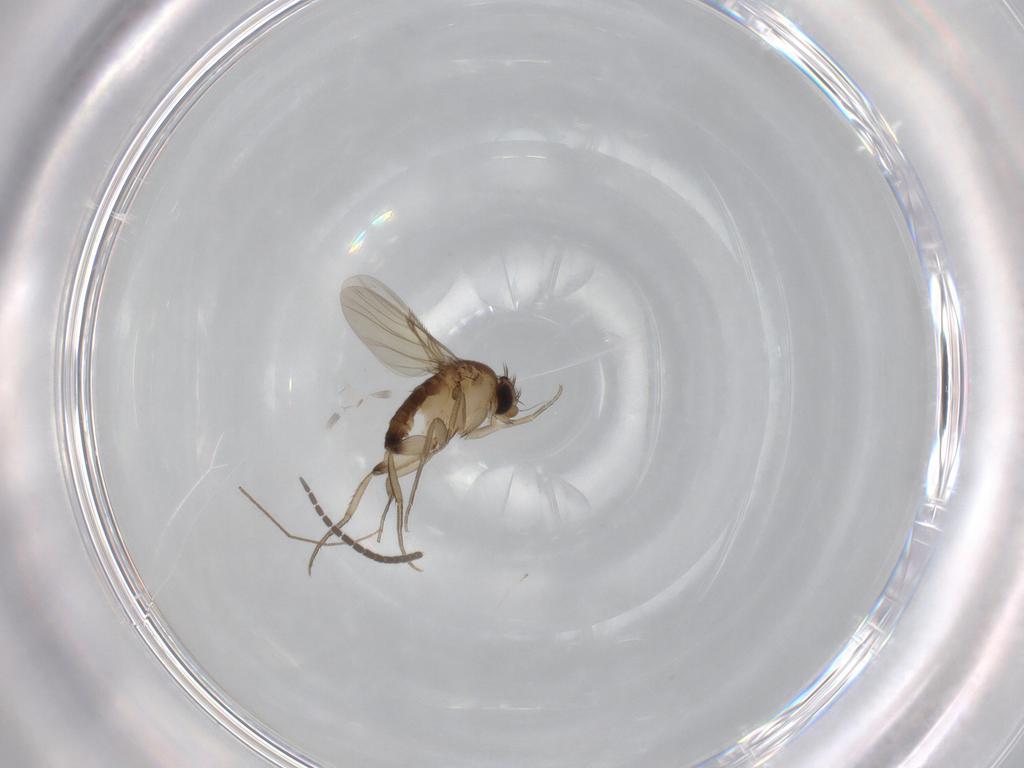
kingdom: Animalia
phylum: Arthropoda
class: Insecta
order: Diptera
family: Sciaridae
